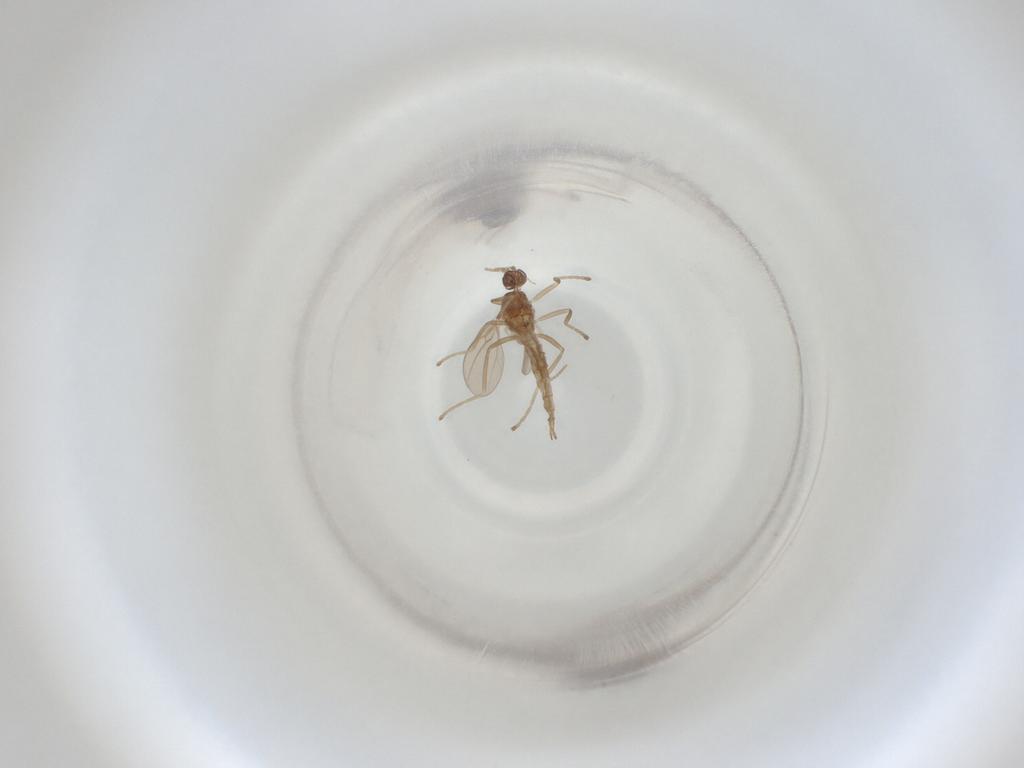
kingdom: Animalia
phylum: Arthropoda
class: Insecta
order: Diptera
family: Cecidomyiidae
